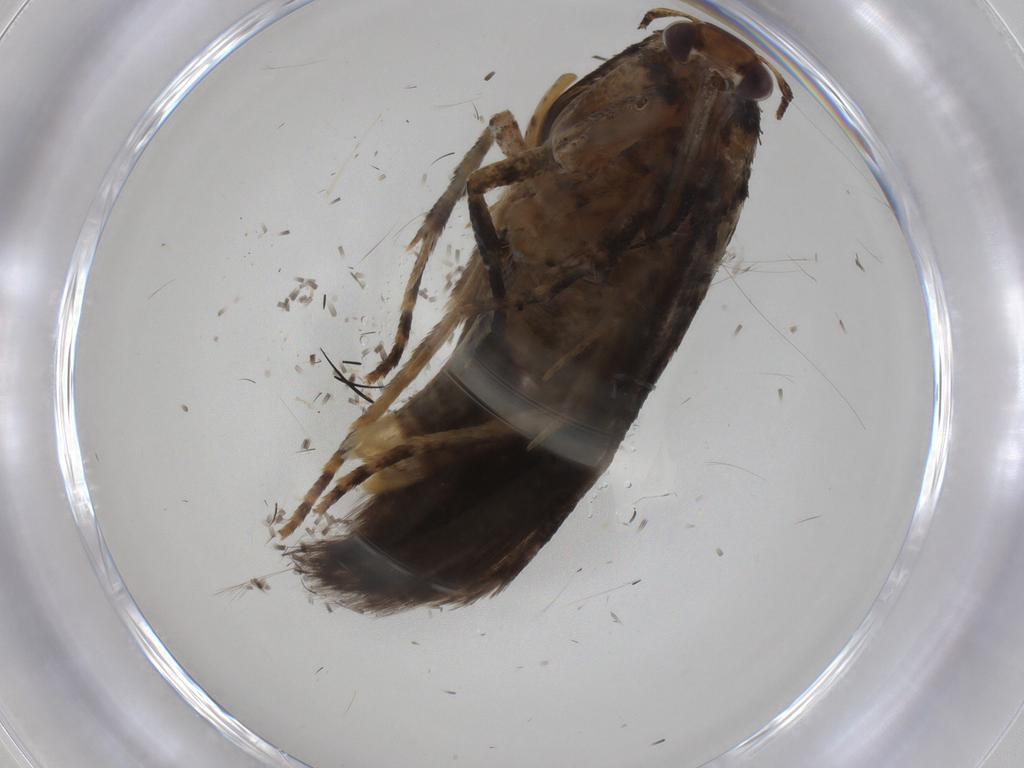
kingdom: Animalia
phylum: Arthropoda
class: Insecta
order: Lepidoptera
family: Gelechiidae
